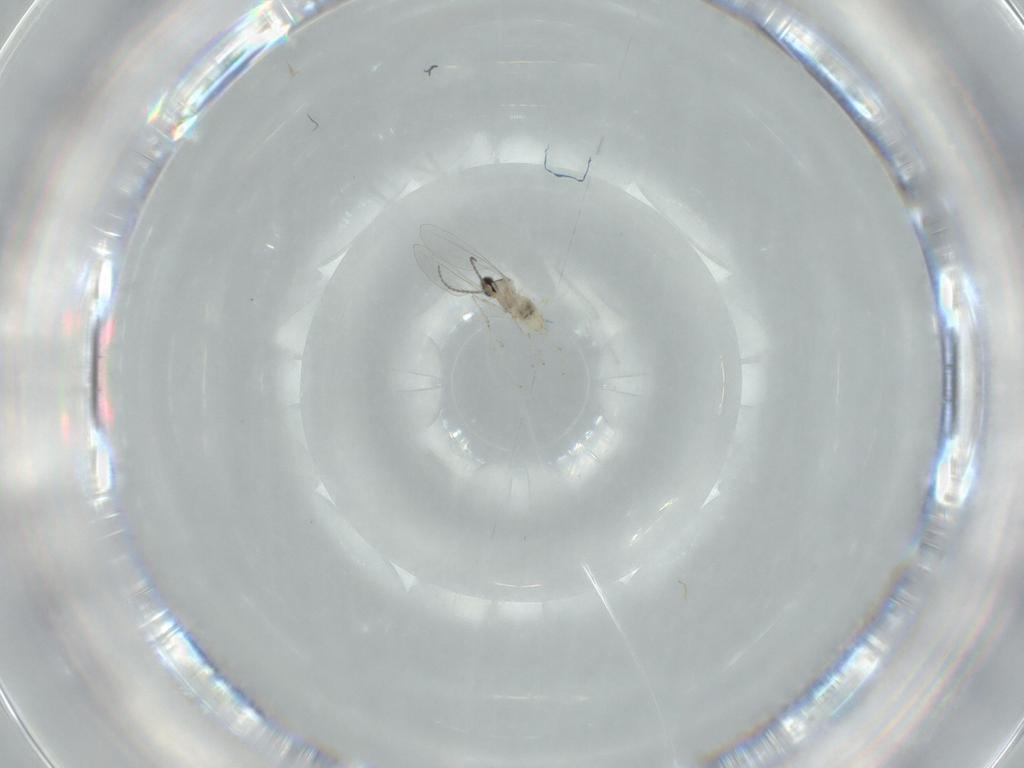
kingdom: Animalia
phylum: Arthropoda
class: Insecta
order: Diptera
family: Cecidomyiidae
